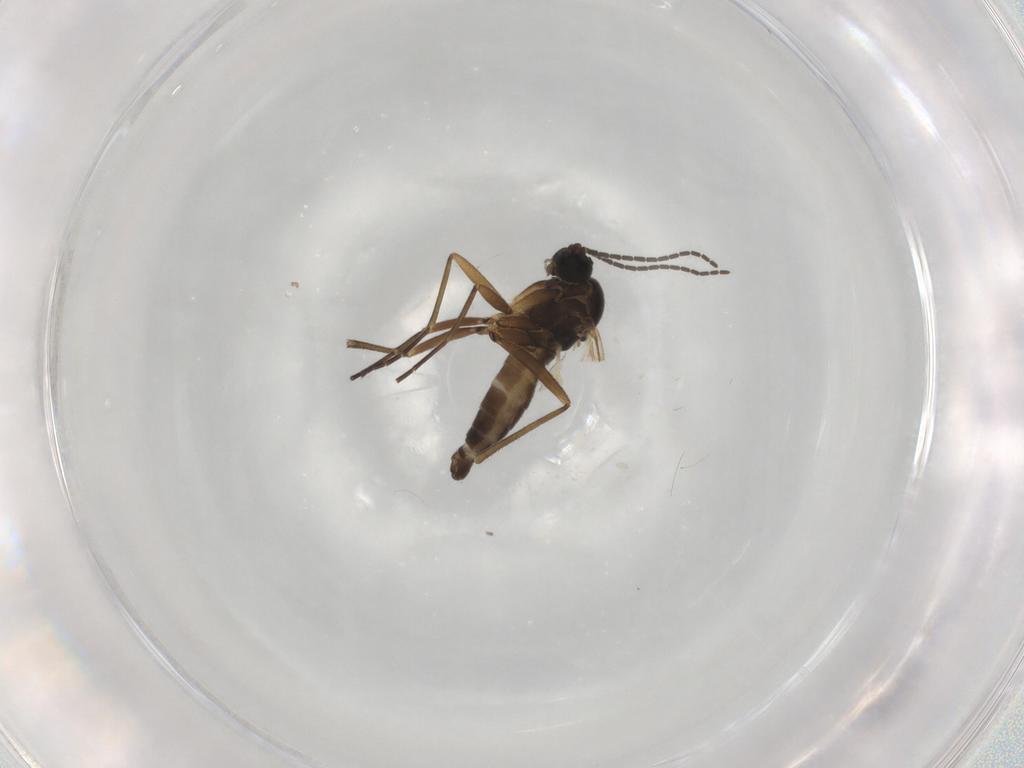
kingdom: Animalia
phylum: Arthropoda
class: Insecta
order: Diptera
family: Sciaridae
